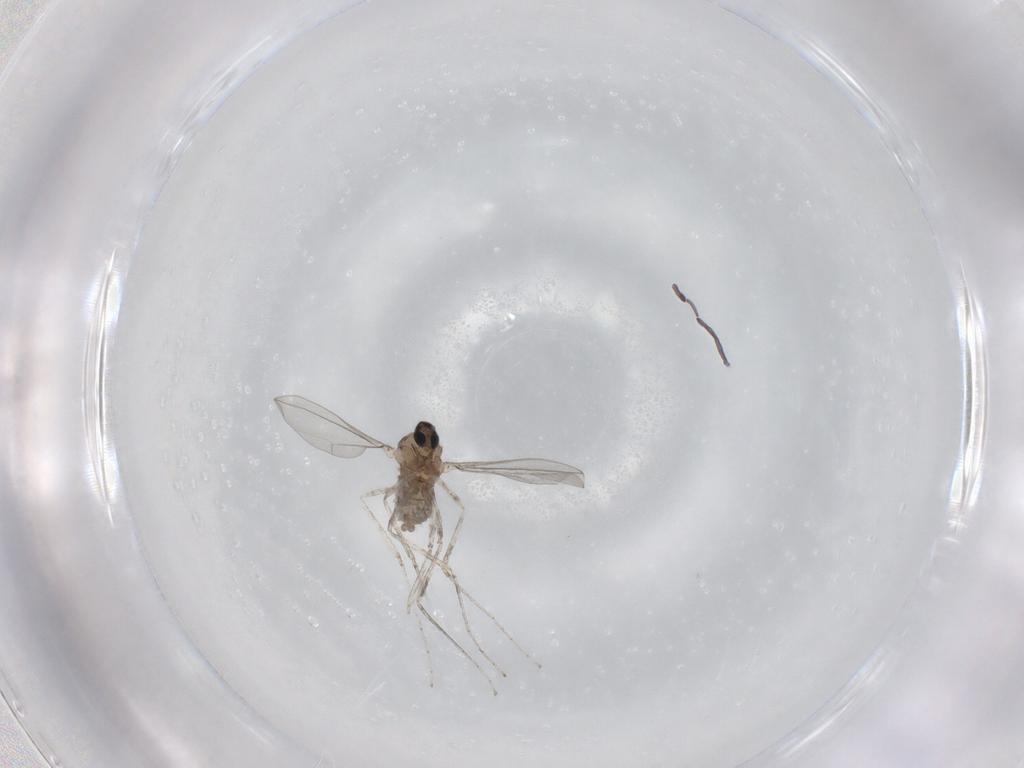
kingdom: Animalia
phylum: Arthropoda
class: Insecta
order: Diptera
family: Cecidomyiidae
